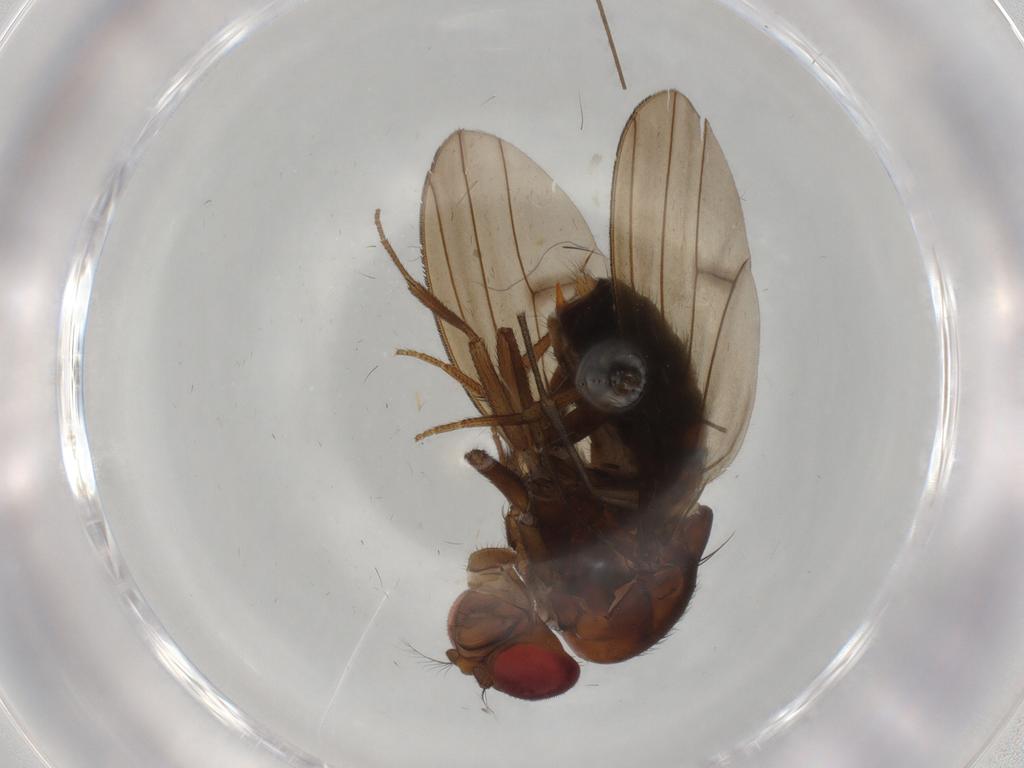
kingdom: Animalia
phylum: Arthropoda
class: Insecta
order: Diptera
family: Drosophilidae
